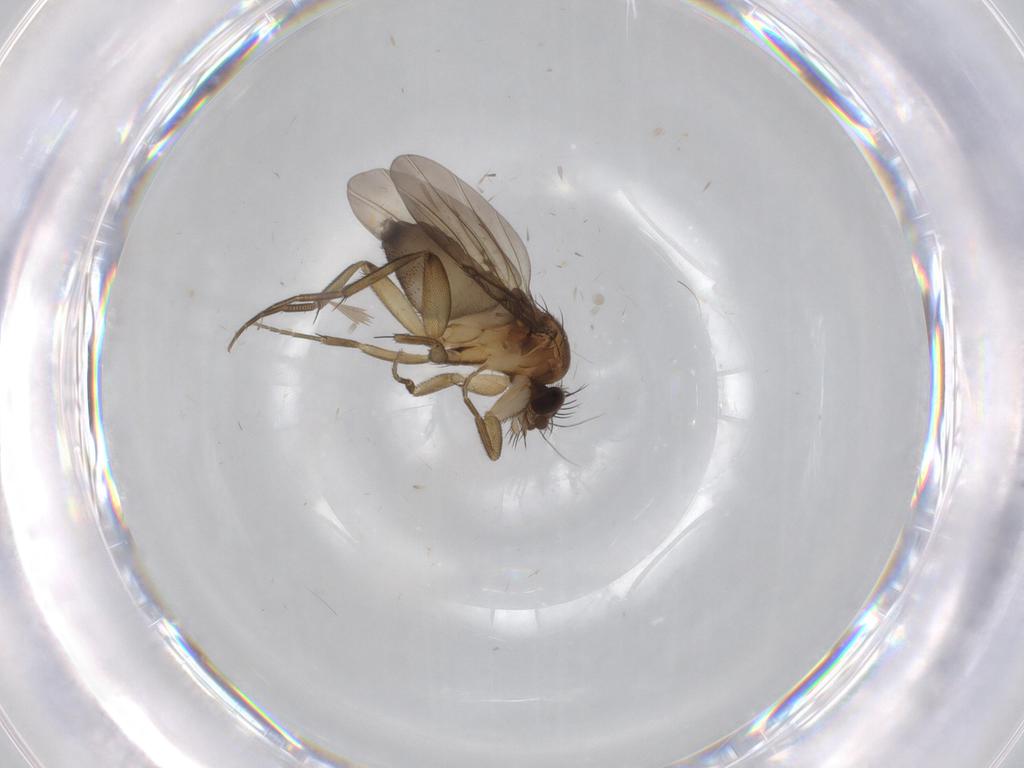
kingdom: Animalia
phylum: Arthropoda
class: Insecta
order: Diptera
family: Phoridae
